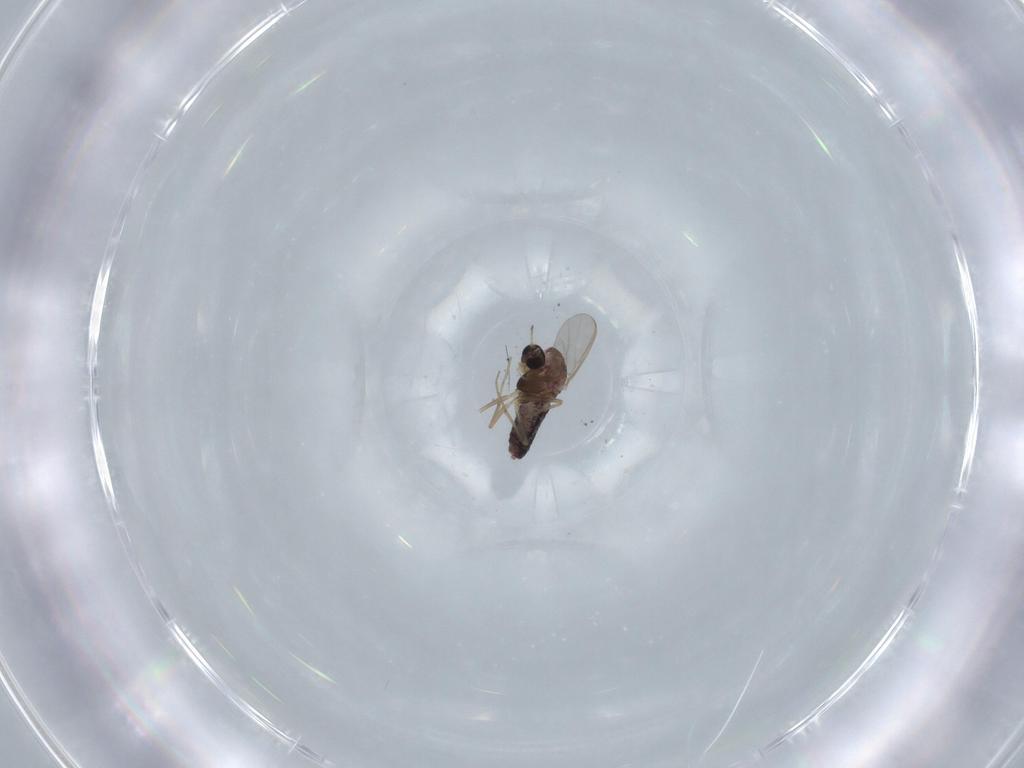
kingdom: Animalia
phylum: Arthropoda
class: Insecta
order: Diptera
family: Chironomidae
